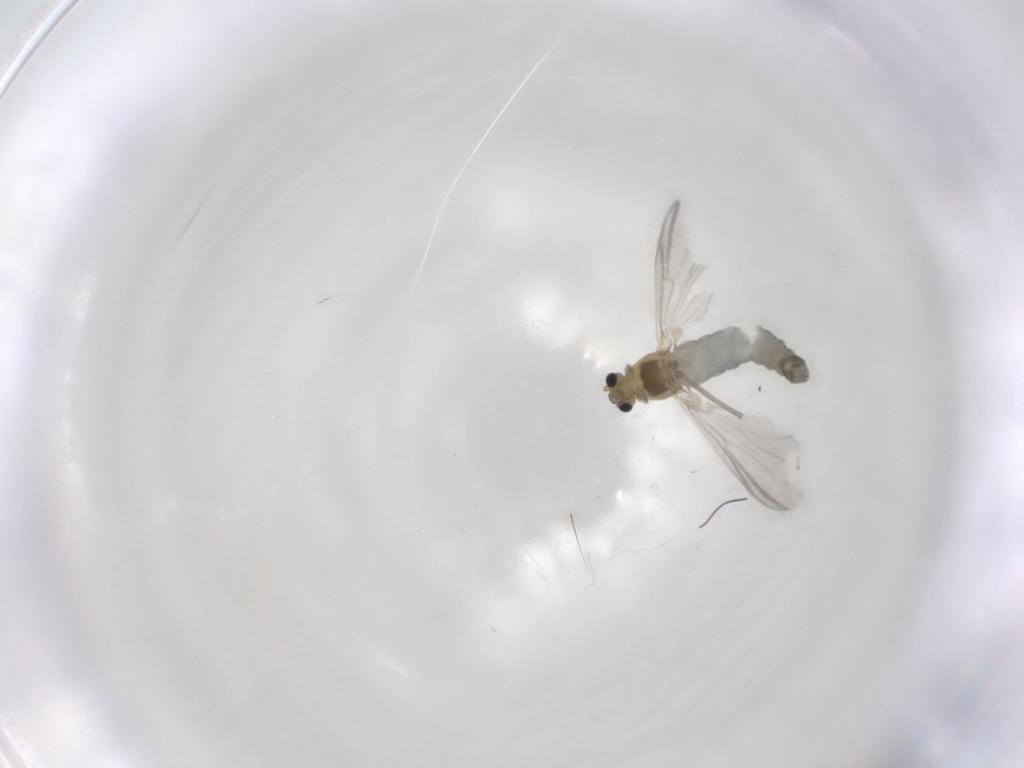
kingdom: Animalia
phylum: Arthropoda
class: Insecta
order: Diptera
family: Chironomidae
